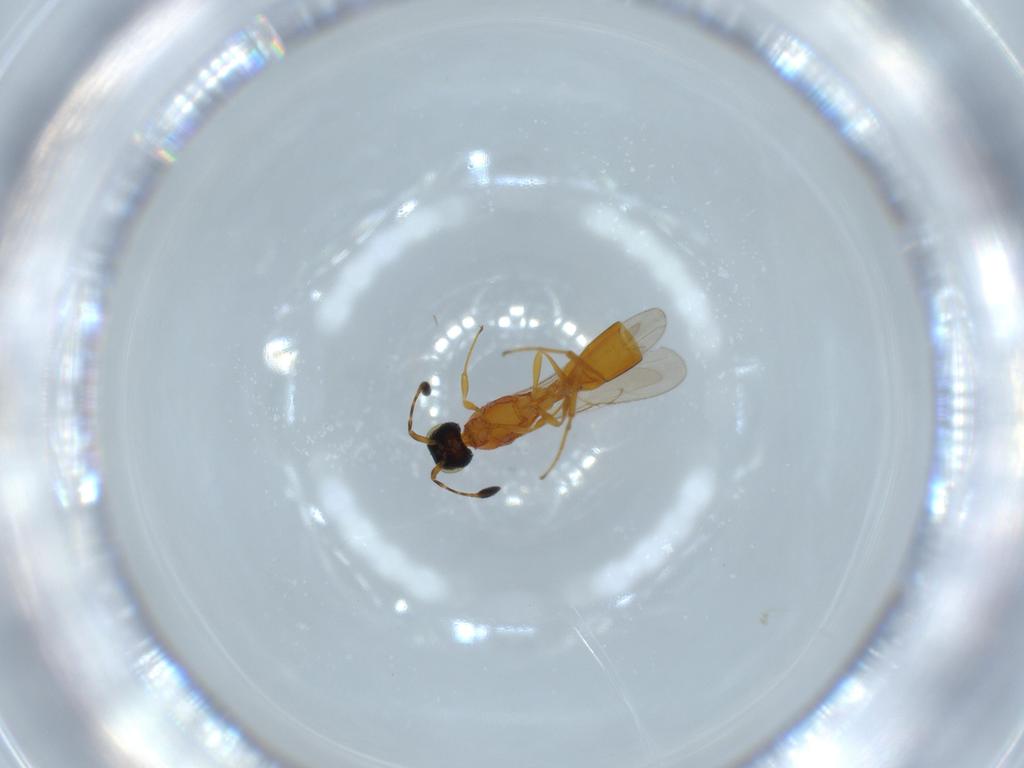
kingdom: Animalia
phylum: Arthropoda
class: Insecta
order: Hymenoptera
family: Scelionidae
